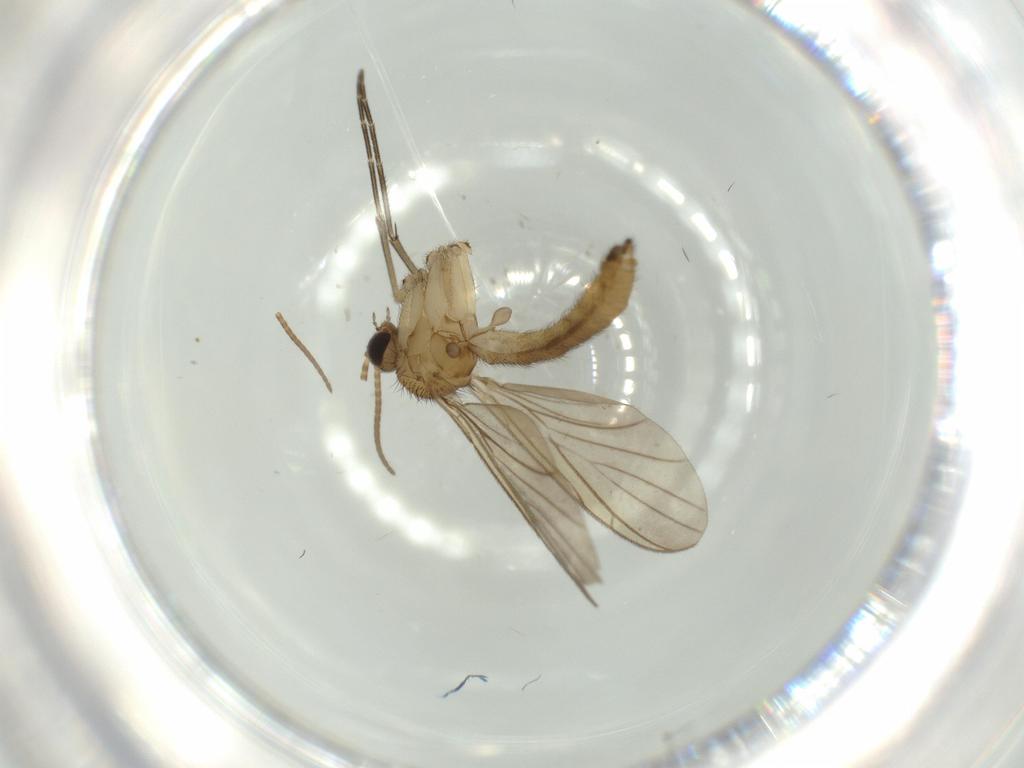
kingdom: Animalia
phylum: Arthropoda
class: Insecta
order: Diptera
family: Keroplatidae
